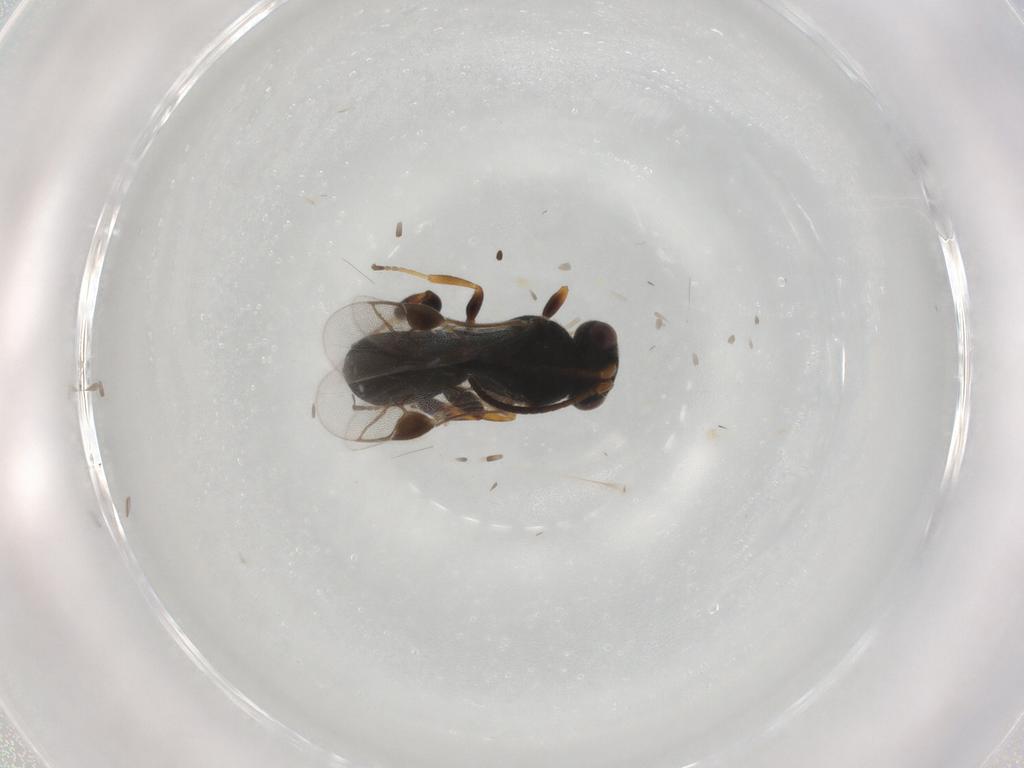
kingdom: Animalia
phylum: Arthropoda
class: Insecta
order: Hymenoptera
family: Braconidae
